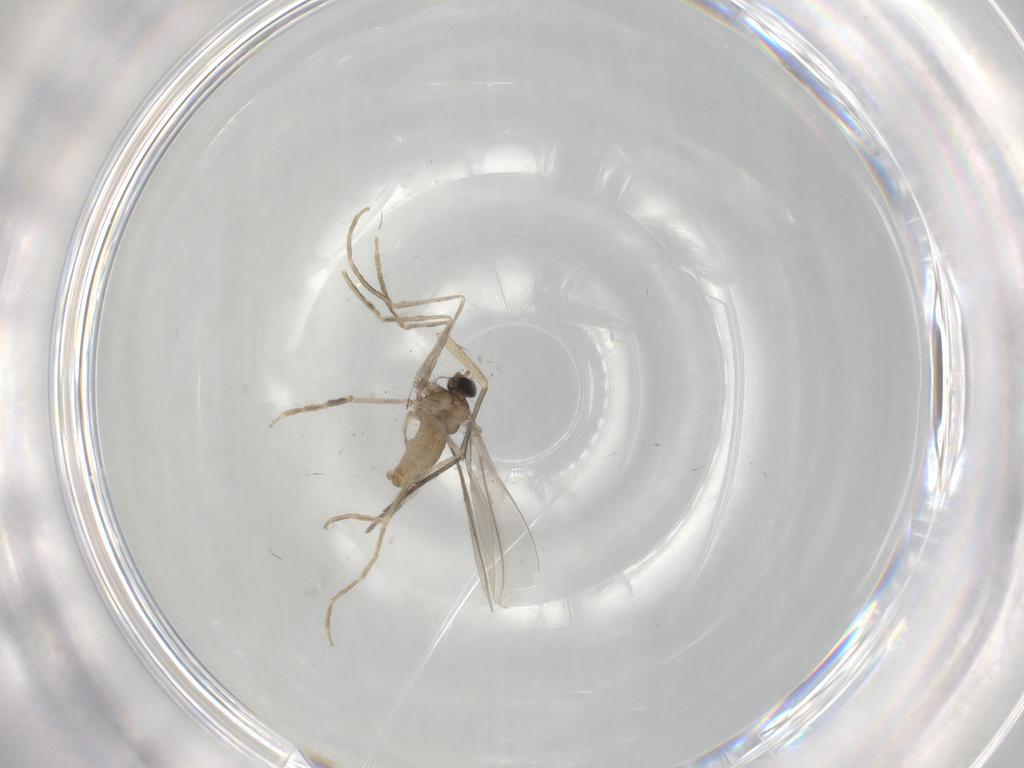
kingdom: Animalia
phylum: Arthropoda
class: Insecta
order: Diptera
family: Cecidomyiidae
